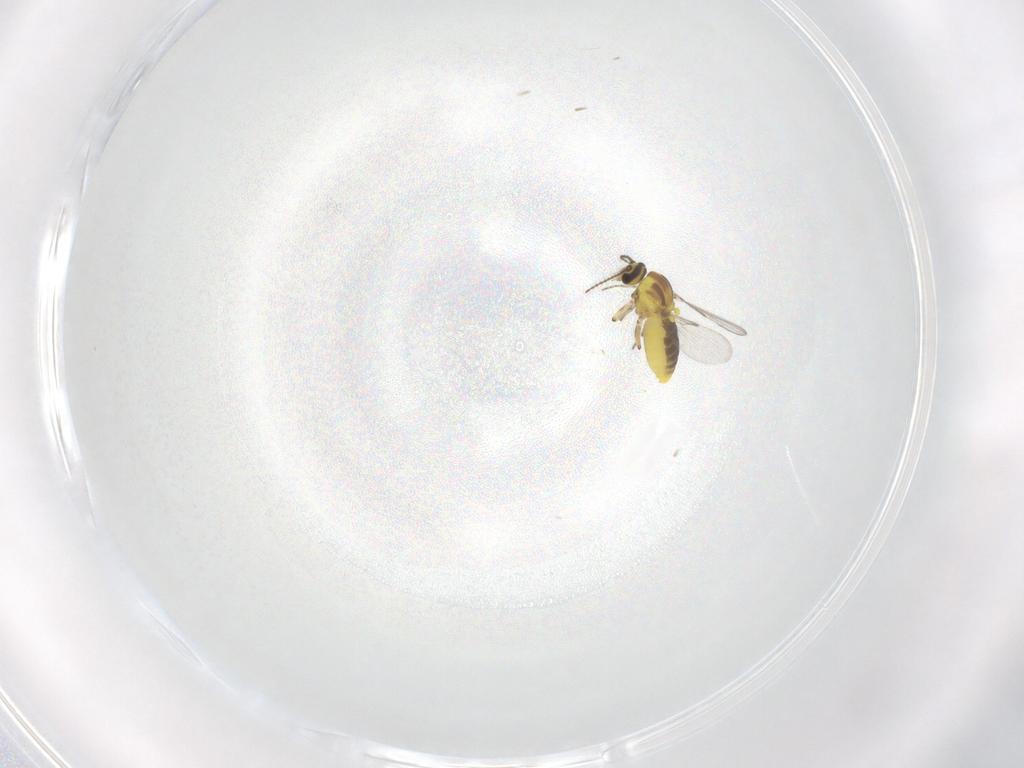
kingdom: Animalia
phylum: Arthropoda
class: Insecta
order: Diptera
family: Ceratopogonidae
